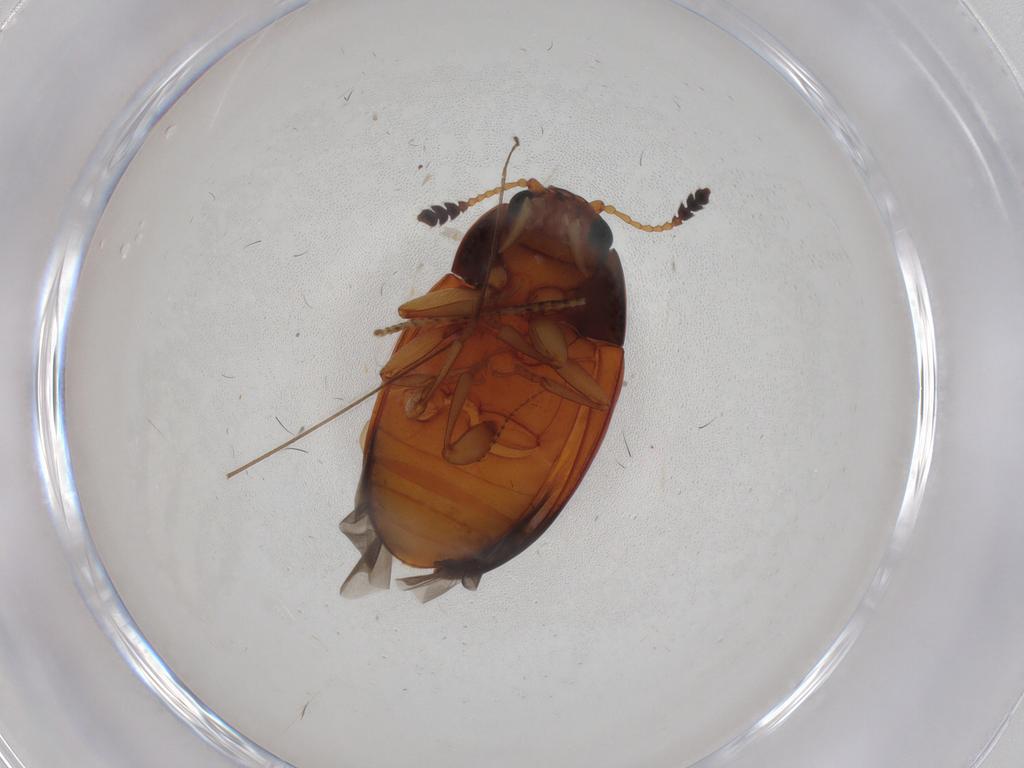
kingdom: Animalia
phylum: Arthropoda
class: Insecta
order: Coleoptera
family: Erotylidae
